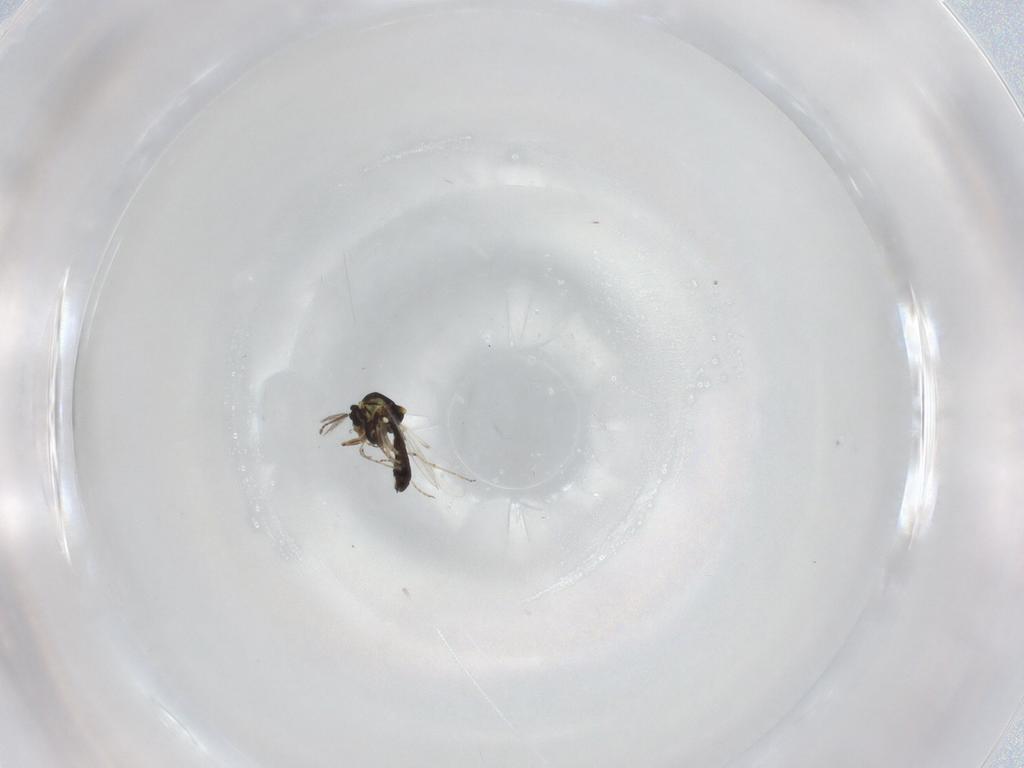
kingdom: Animalia
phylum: Arthropoda
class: Insecta
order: Diptera
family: Ceratopogonidae
